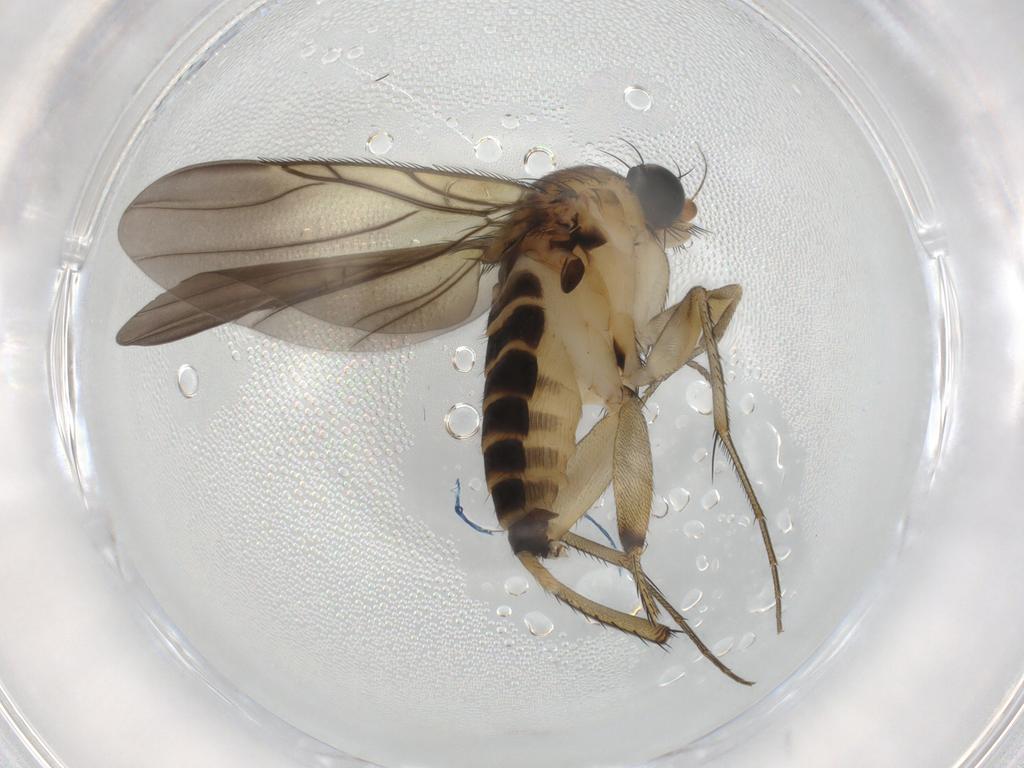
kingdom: Animalia
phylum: Arthropoda
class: Insecta
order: Diptera
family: Phoridae
